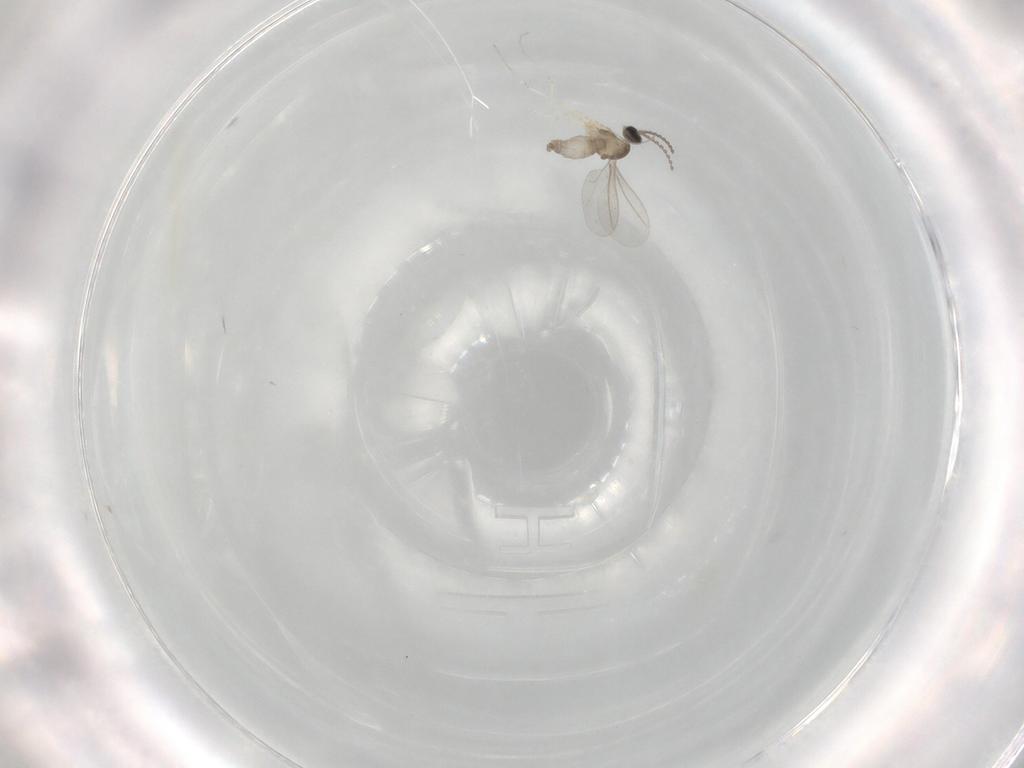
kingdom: Animalia
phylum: Arthropoda
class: Insecta
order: Diptera
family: Cecidomyiidae
